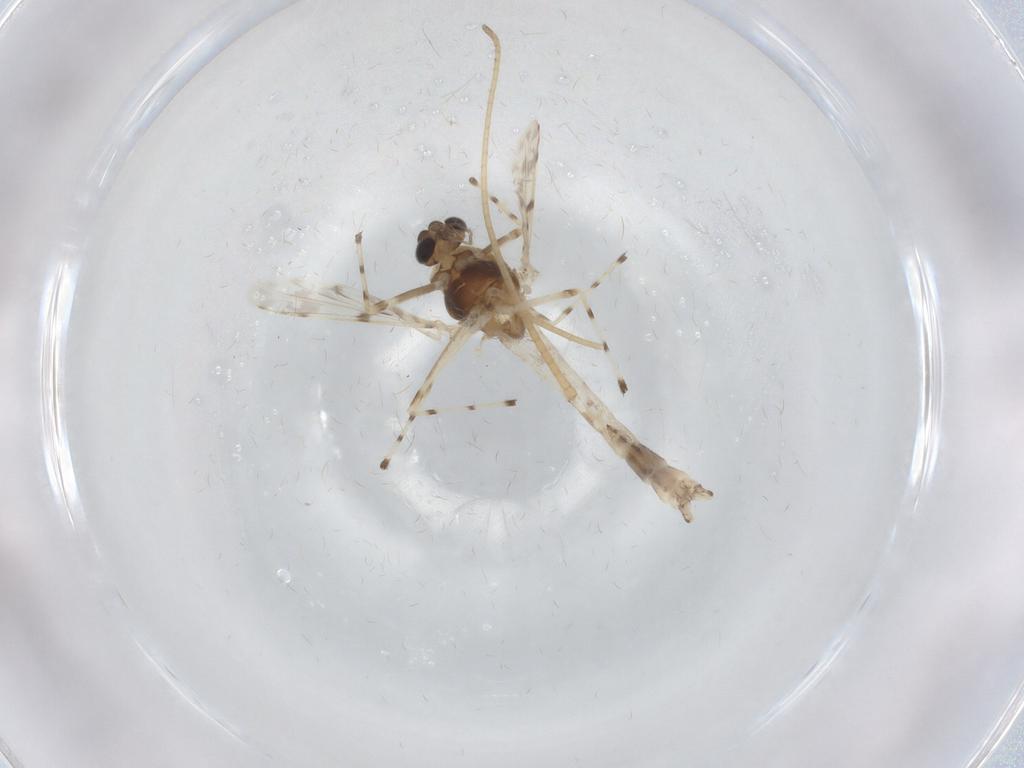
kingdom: Animalia
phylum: Arthropoda
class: Insecta
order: Diptera
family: Chironomidae
